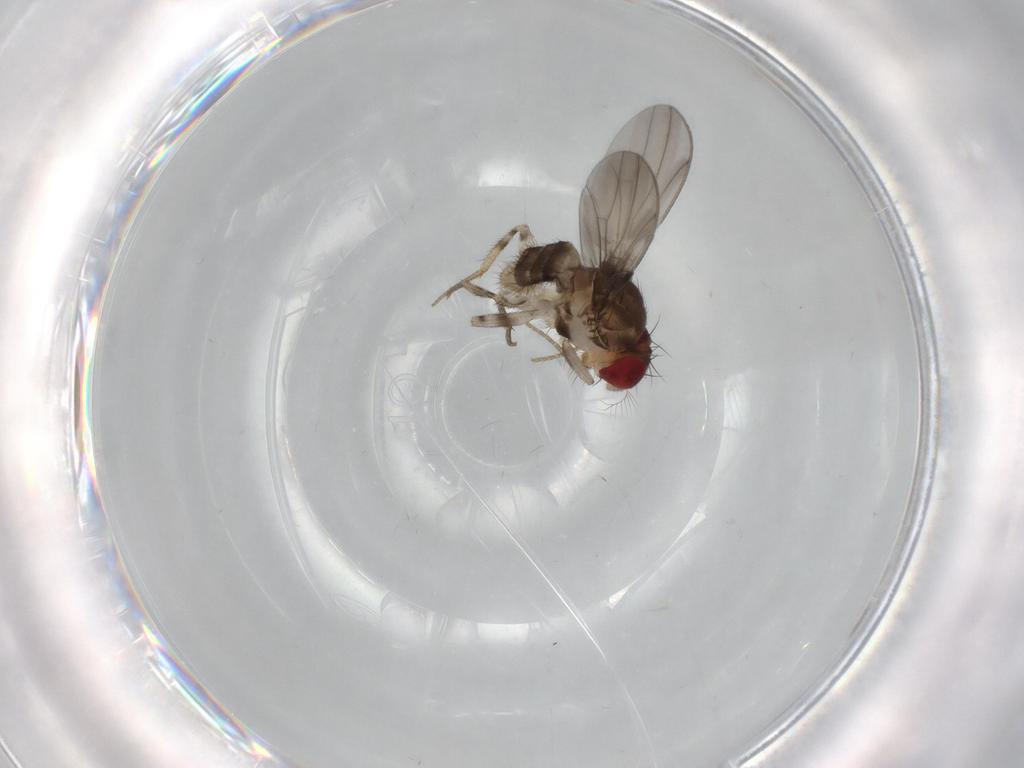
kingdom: Animalia
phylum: Arthropoda
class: Insecta
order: Diptera
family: Drosophilidae
